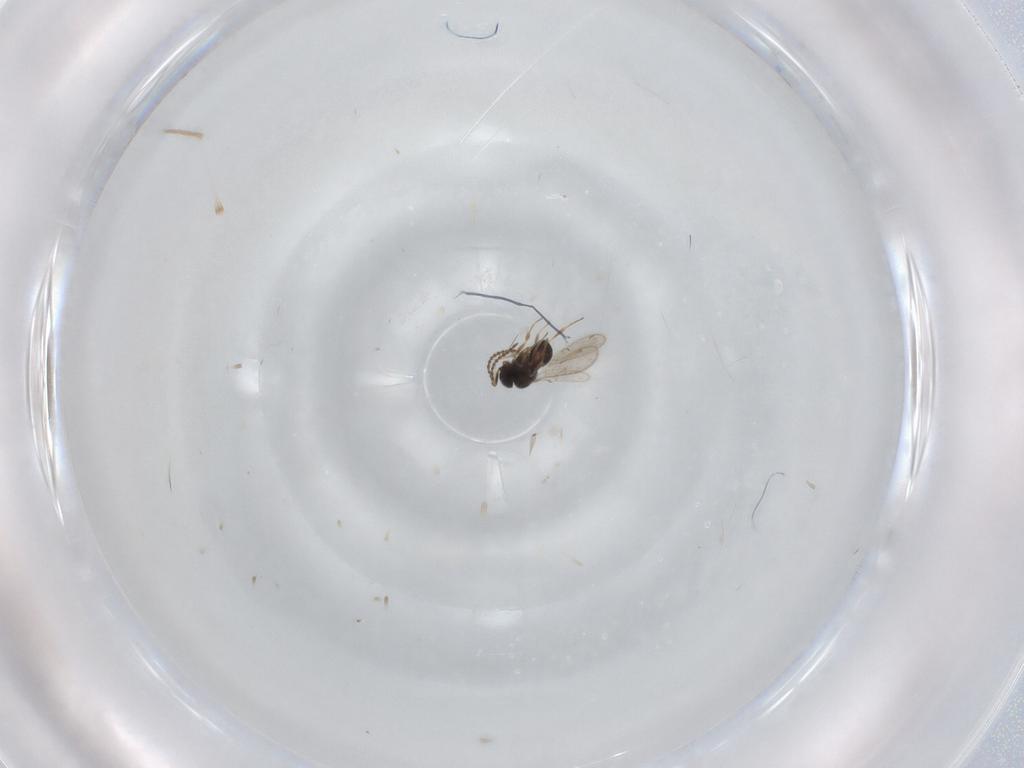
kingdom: Animalia
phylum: Arthropoda
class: Insecta
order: Hymenoptera
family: Scelionidae
